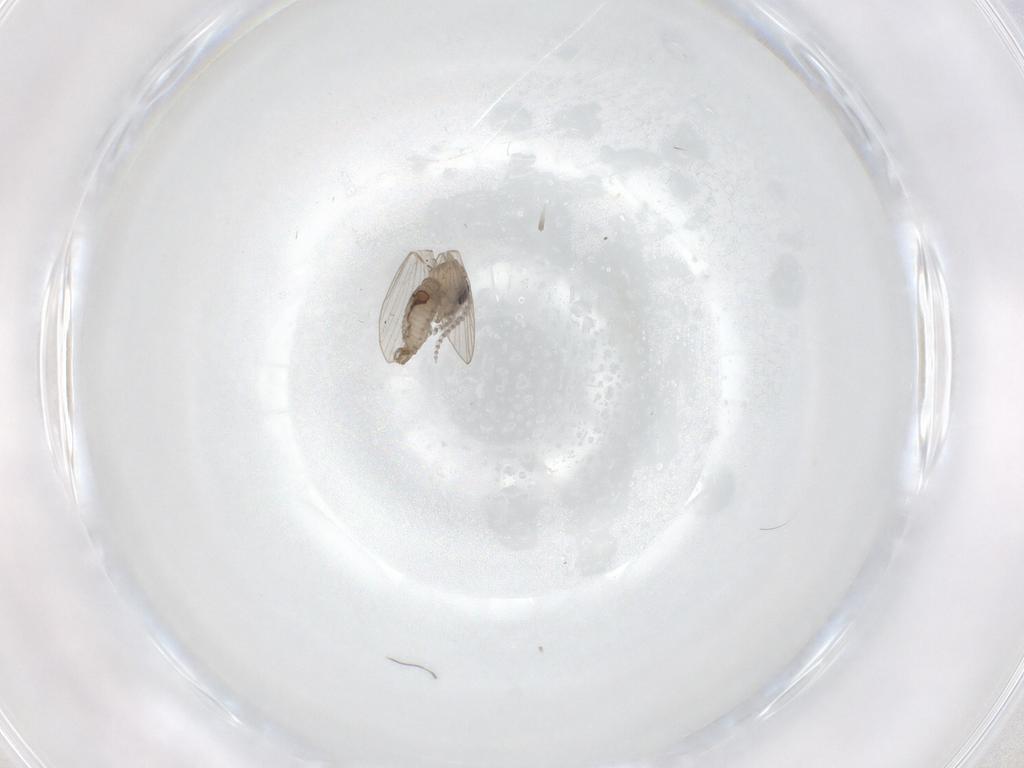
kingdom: Animalia
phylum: Arthropoda
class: Insecta
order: Diptera
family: Psychodidae
